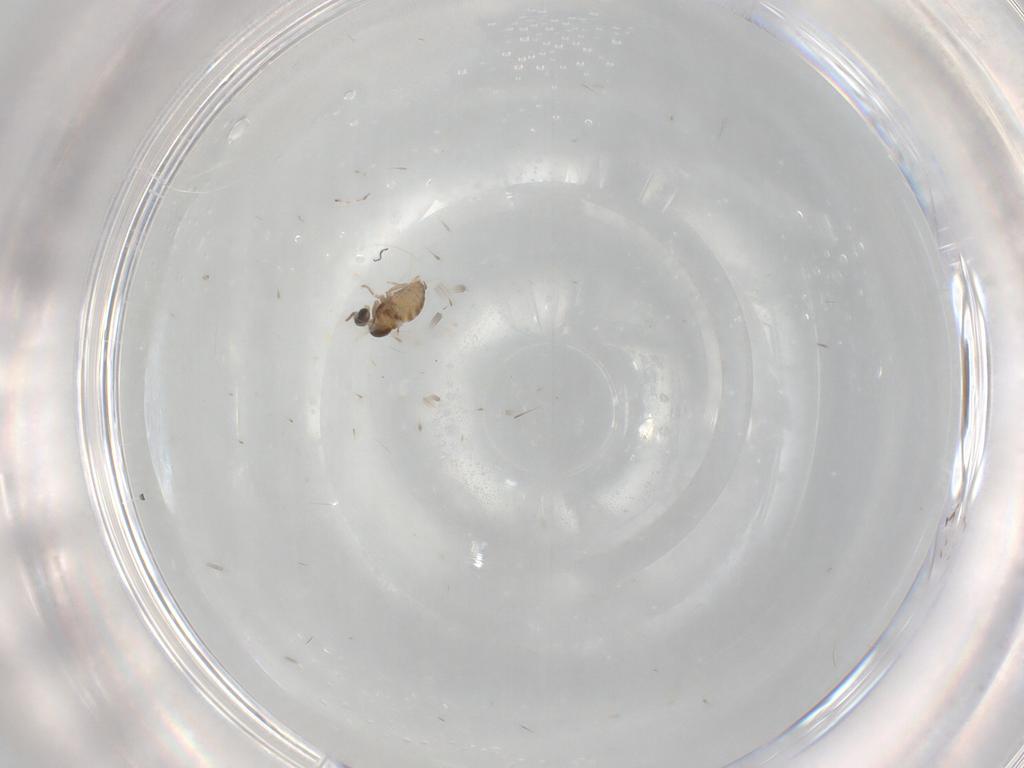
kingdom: Animalia
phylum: Arthropoda
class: Insecta
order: Diptera
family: Cecidomyiidae
